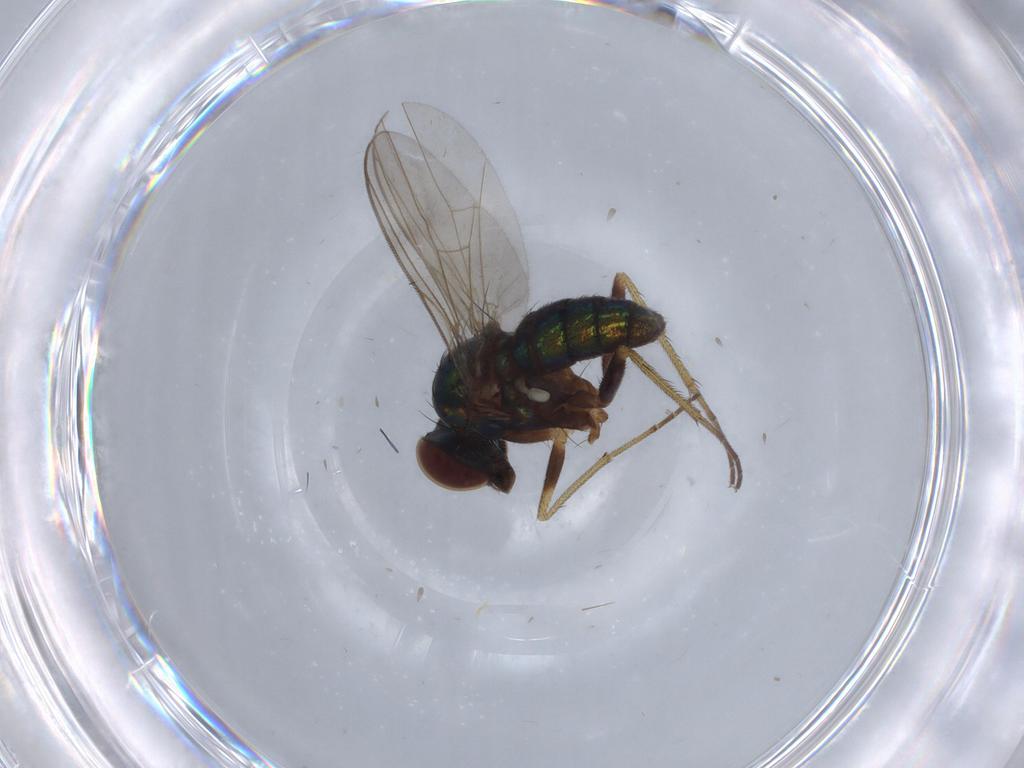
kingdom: Animalia
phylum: Arthropoda
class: Insecta
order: Diptera
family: Dolichopodidae
